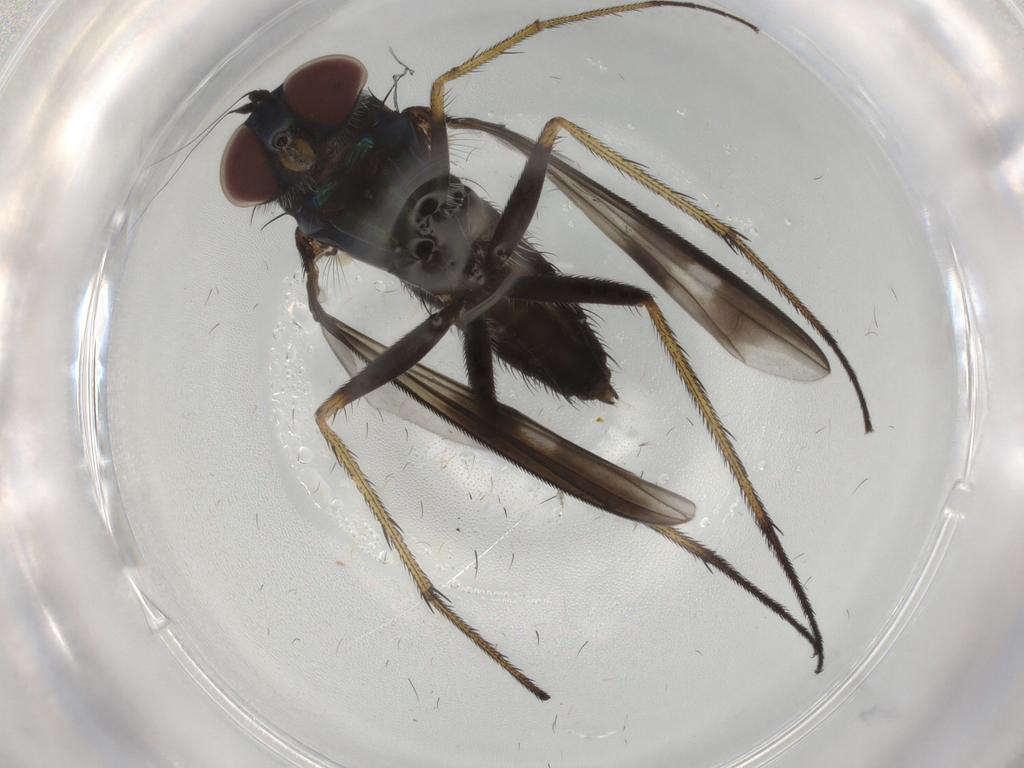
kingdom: Animalia
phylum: Arthropoda
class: Insecta
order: Diptera
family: Dolichopodidae
